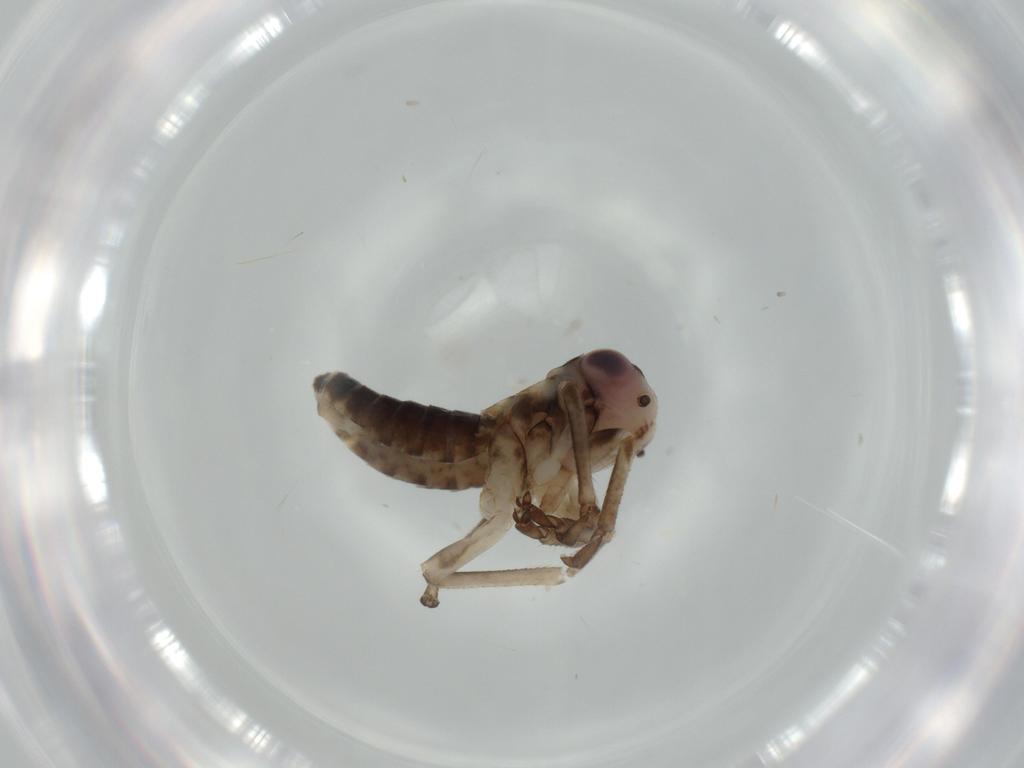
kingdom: Animalia
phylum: Arthropoda
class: Insecta
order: Hemiptera
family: Cicadellidae
